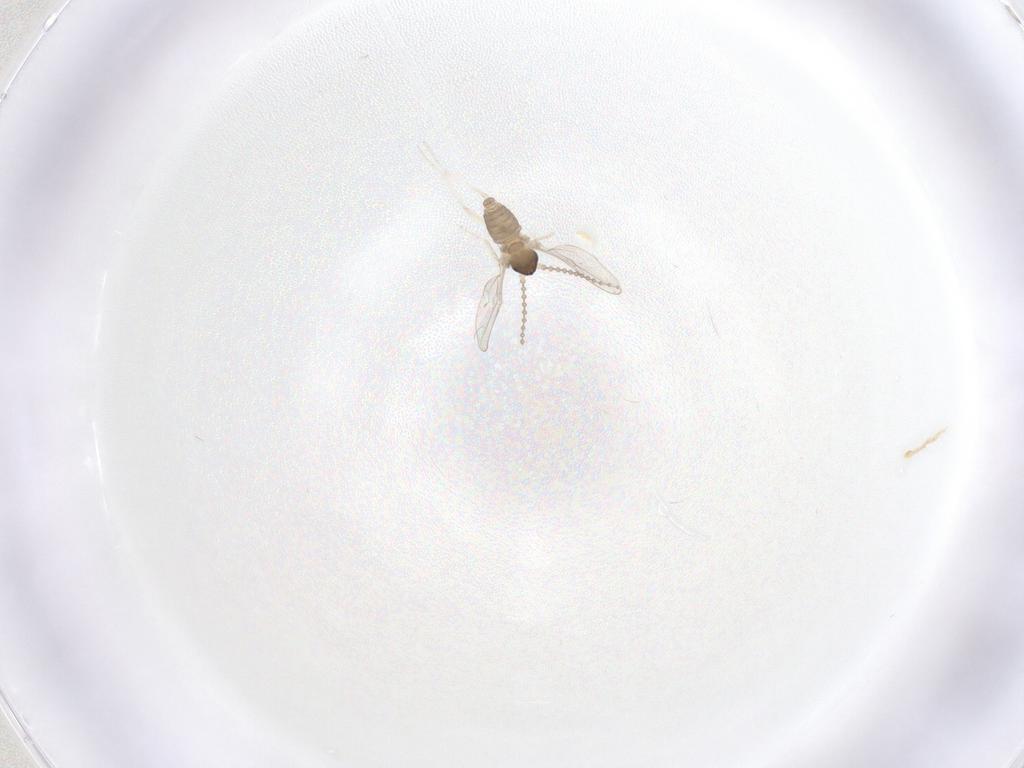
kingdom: Animalia
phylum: Arthropoda
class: Insecta
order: Diptera
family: Cecidomyiidae
